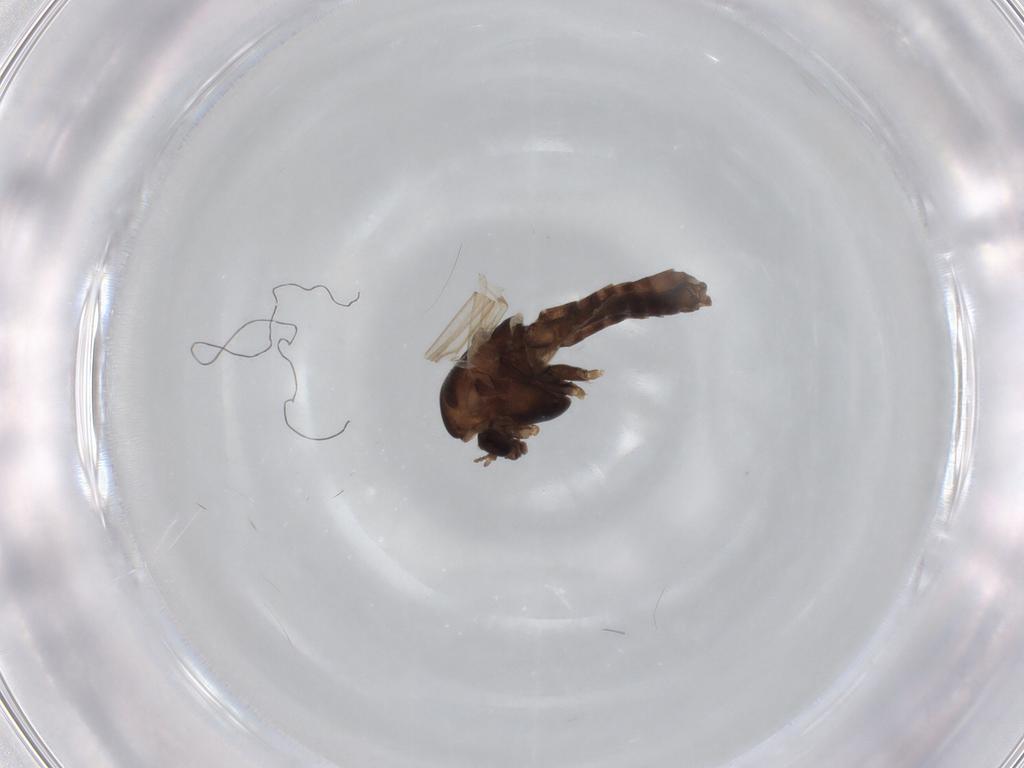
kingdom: Animalia
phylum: Arthropoda
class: Insecta
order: Diptera
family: Chironomidae
